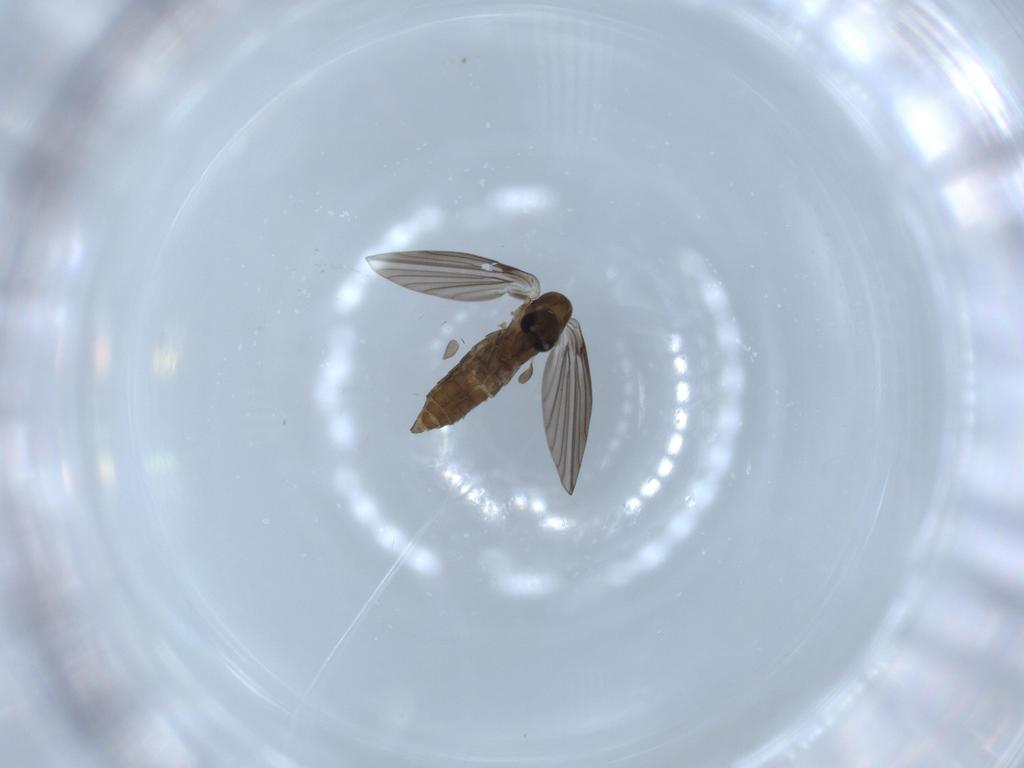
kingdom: Animalia
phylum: Arthropoda
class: Insecta
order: Diptera
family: Psychodidae
